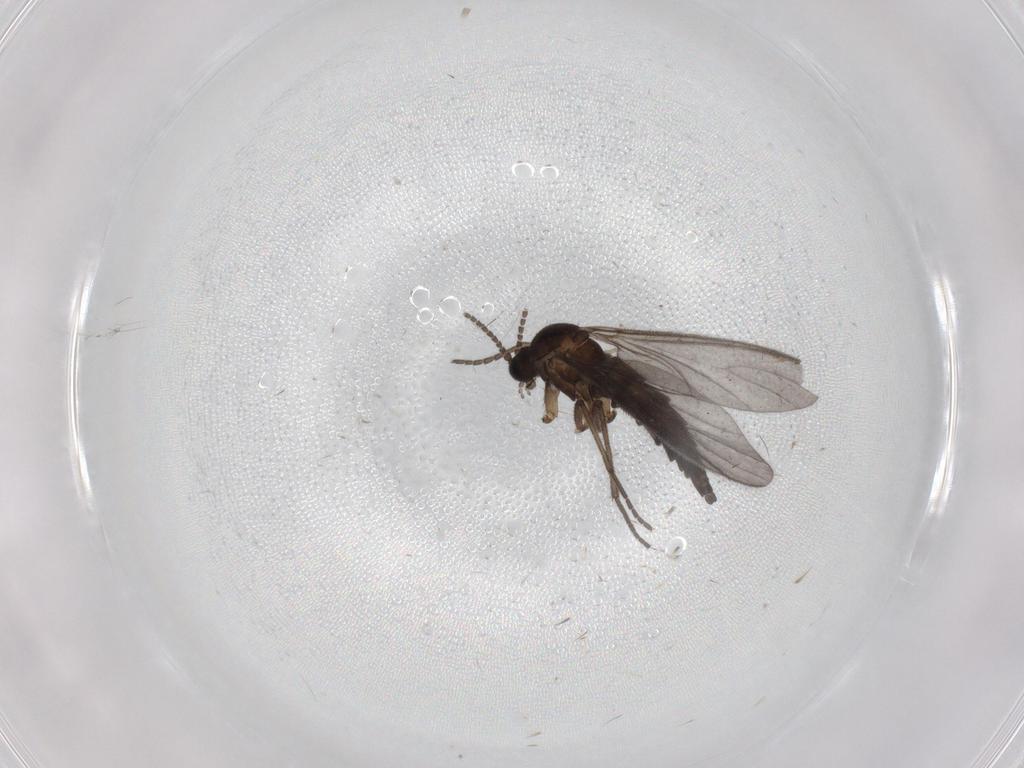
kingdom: Animalia
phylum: Arthropoda
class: Insecta
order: Diptera
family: Sciaridae
